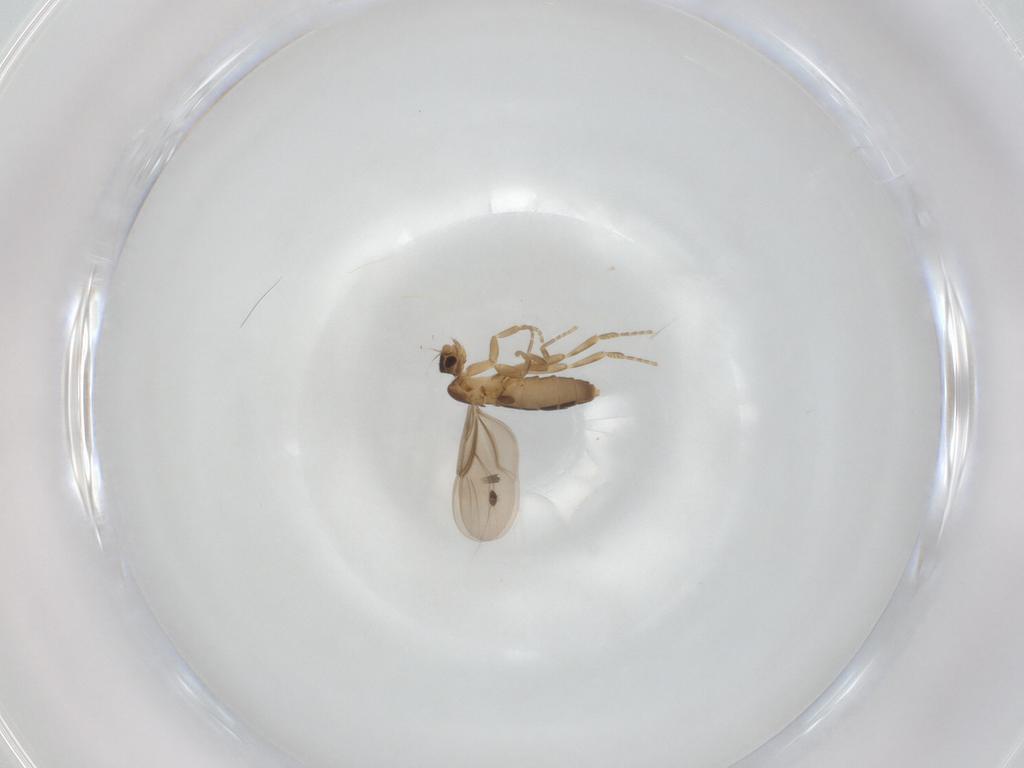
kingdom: Animalia
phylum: Arthropoda
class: Insecta
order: Diptera
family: Phoridae
